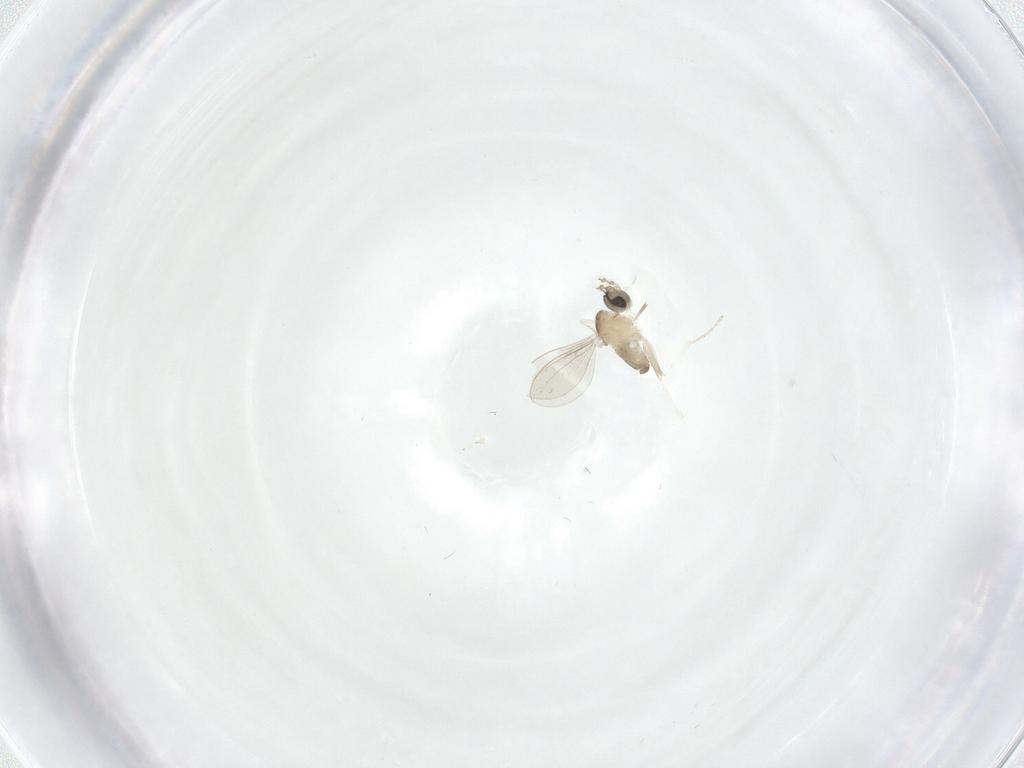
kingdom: Animalia
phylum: Arthropoda
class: Insecta
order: Diptera
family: Cecidomyiidae
